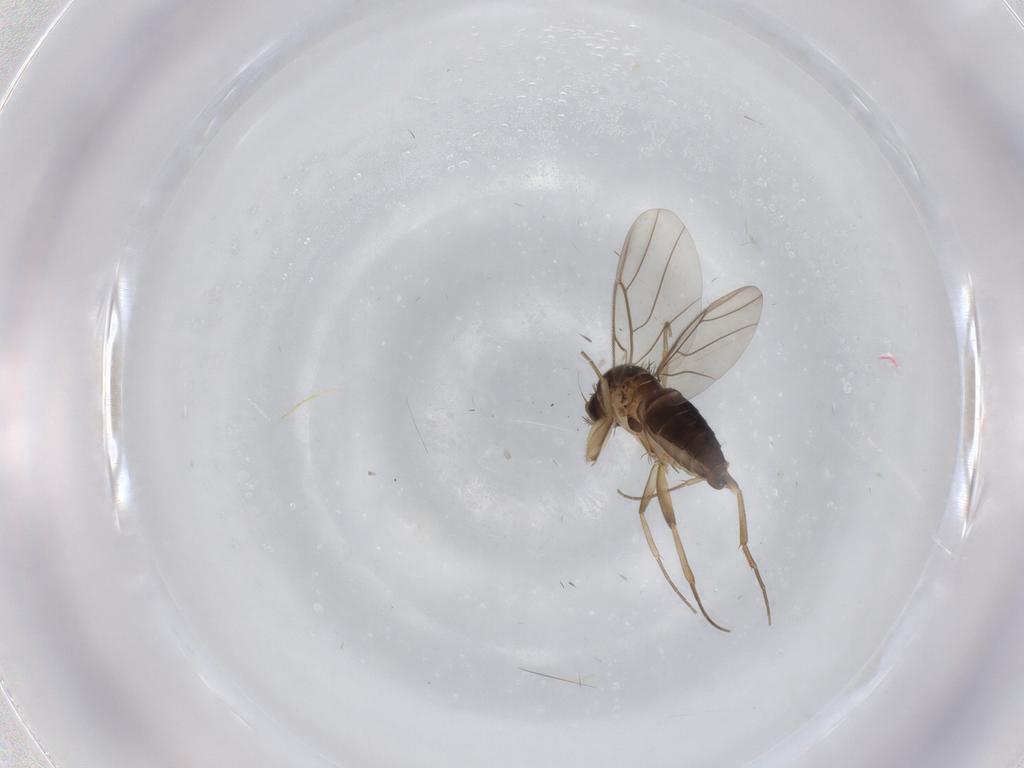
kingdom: Animalia
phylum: Arthropoda
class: Insecta
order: Diptera
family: Phoridae
